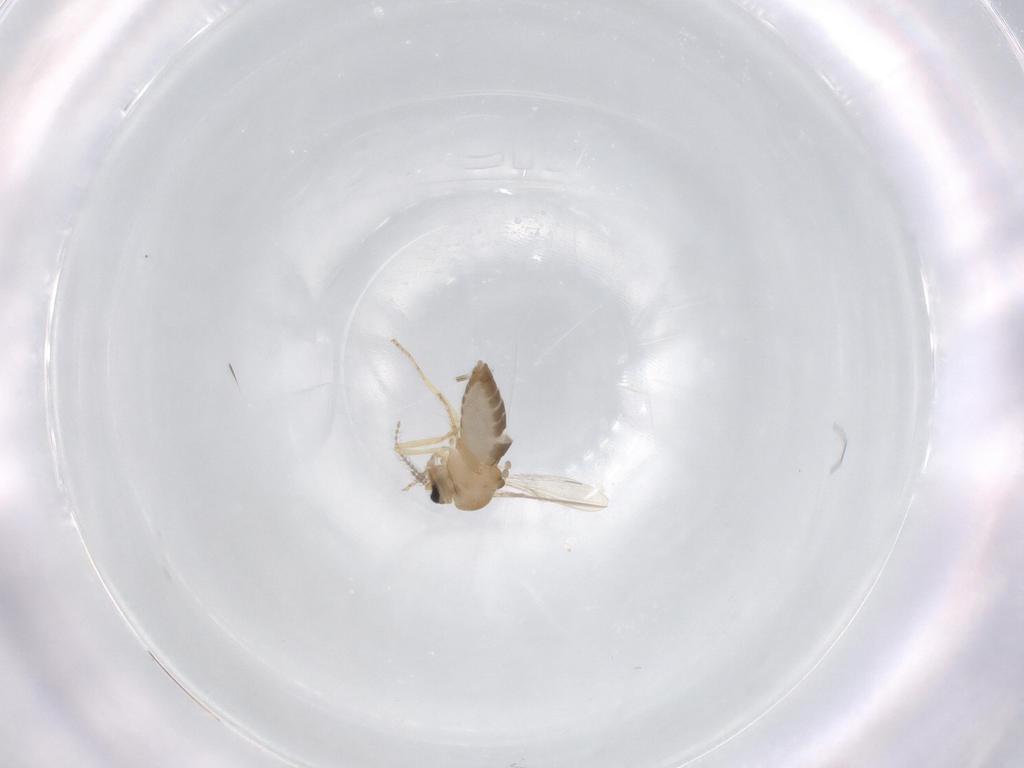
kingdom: Animalia
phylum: Arthropoda
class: Insecta
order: Diptera
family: Ceratopogonidae
